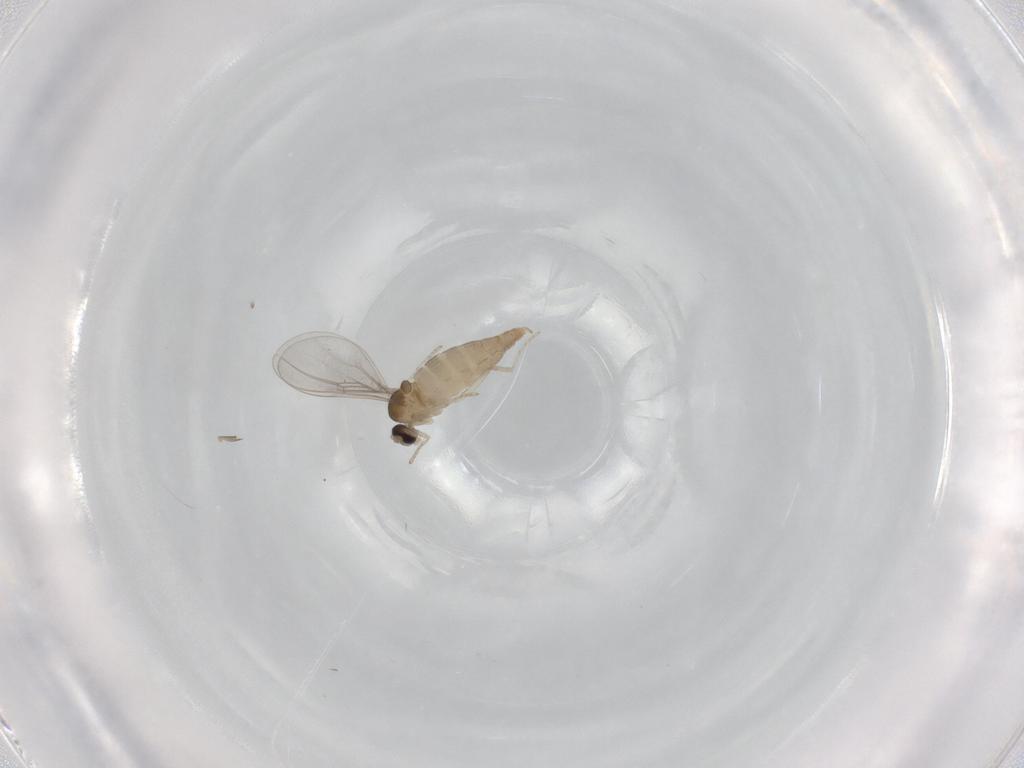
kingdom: Animalia
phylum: Arthropoda
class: Insecta
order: Diptera
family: Cecidomyiidae
